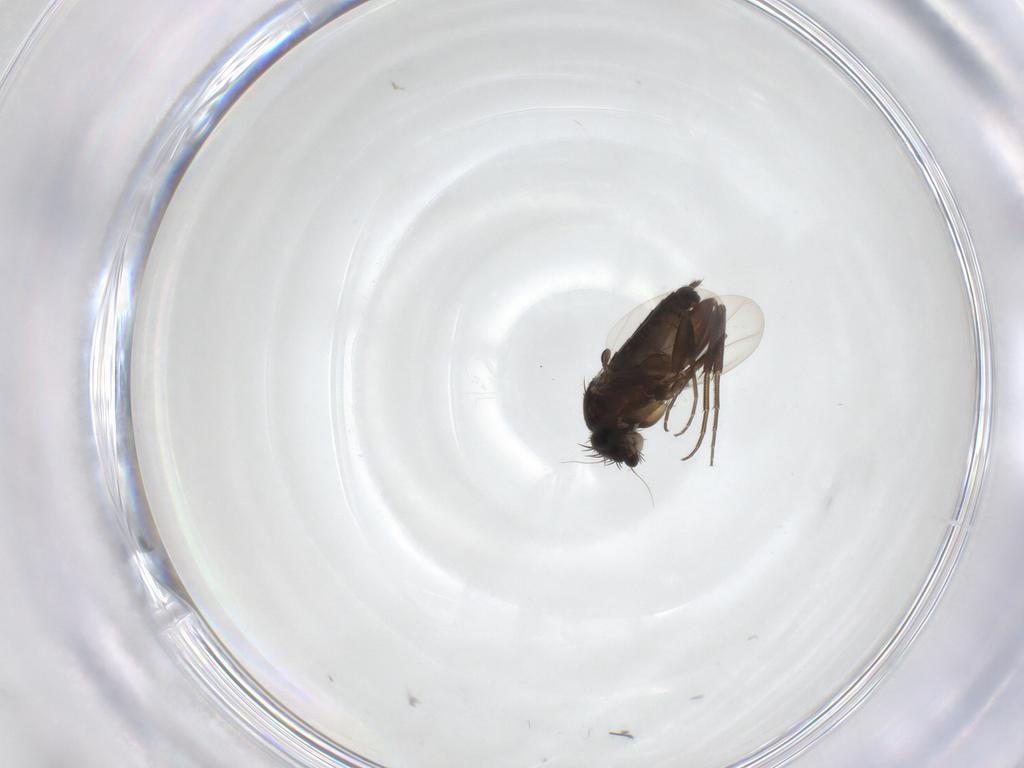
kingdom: Animalia
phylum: Arthropoda
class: Insecta
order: Diptera
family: Phoridae
